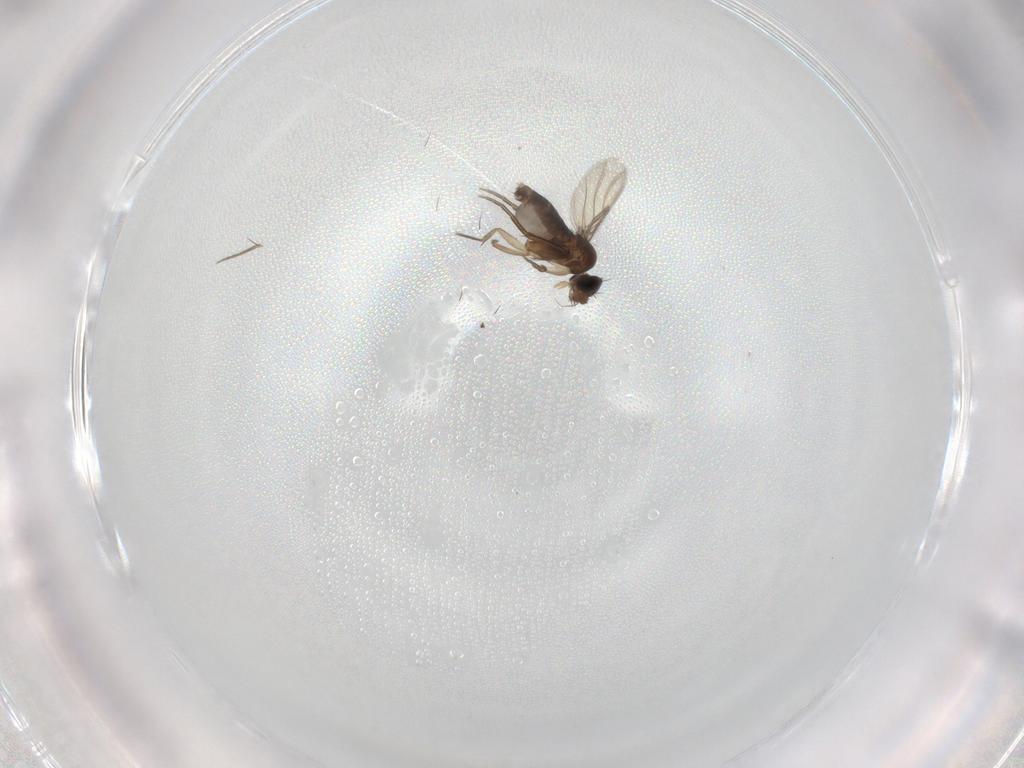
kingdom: Animalia
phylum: Arthropoda
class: Insecta
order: Diptera
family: Phoridae
